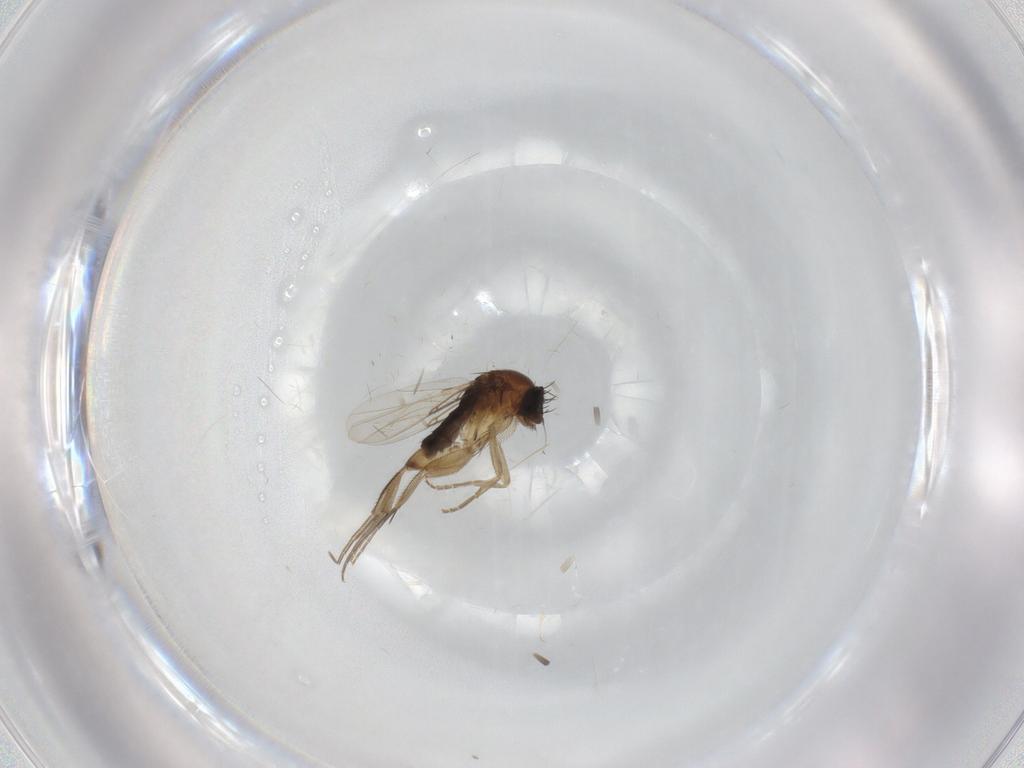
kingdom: Animalia
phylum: Arthropoda
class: Insecta
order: Diptera
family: Phoridae
